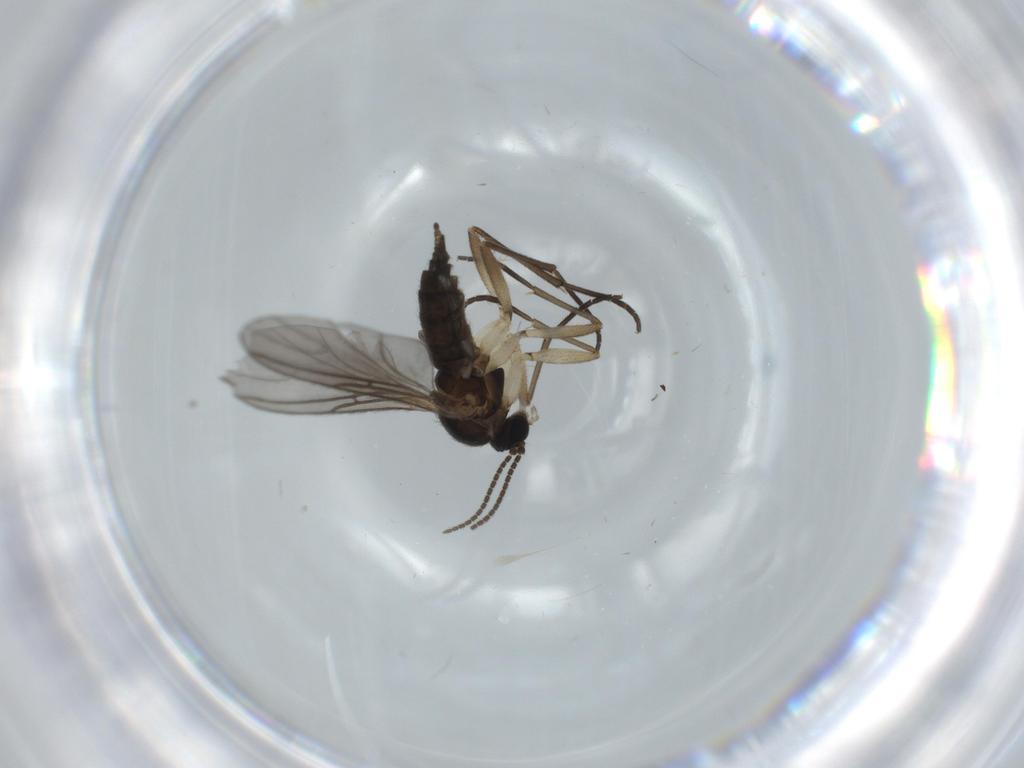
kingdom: Animalia
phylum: Arthropoda
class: Insecta
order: Diptera
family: Sciaridae
